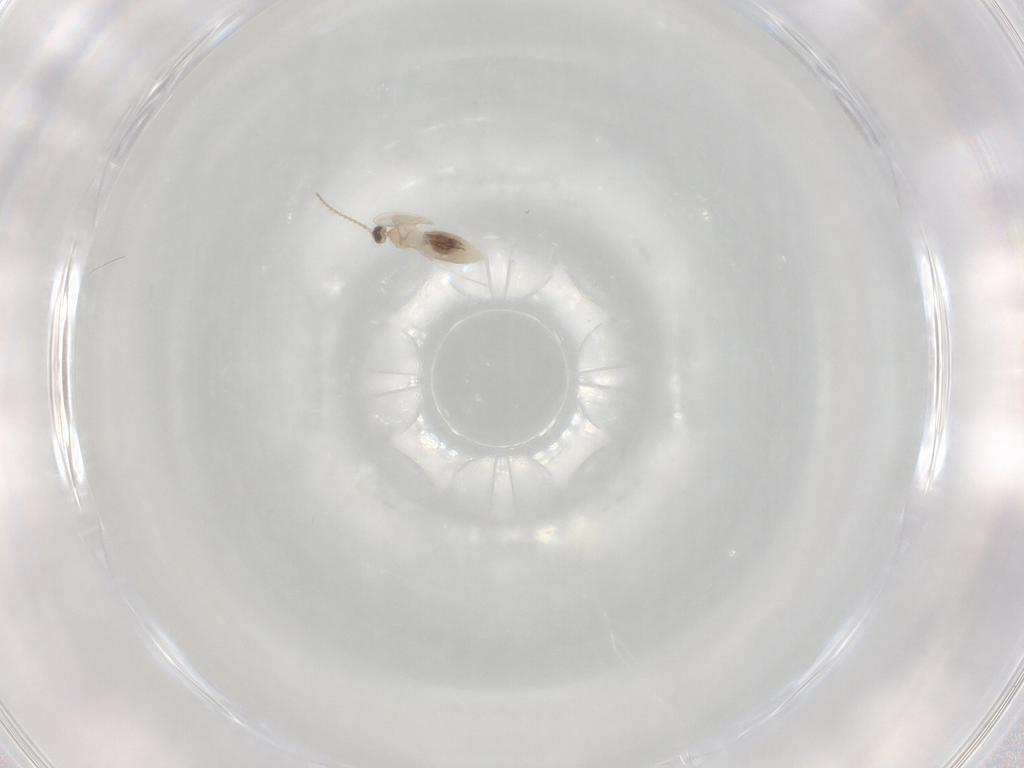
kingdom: Animalia
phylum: Arthropoda
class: Insecta
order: Diptera
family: Cecidomyiidae
